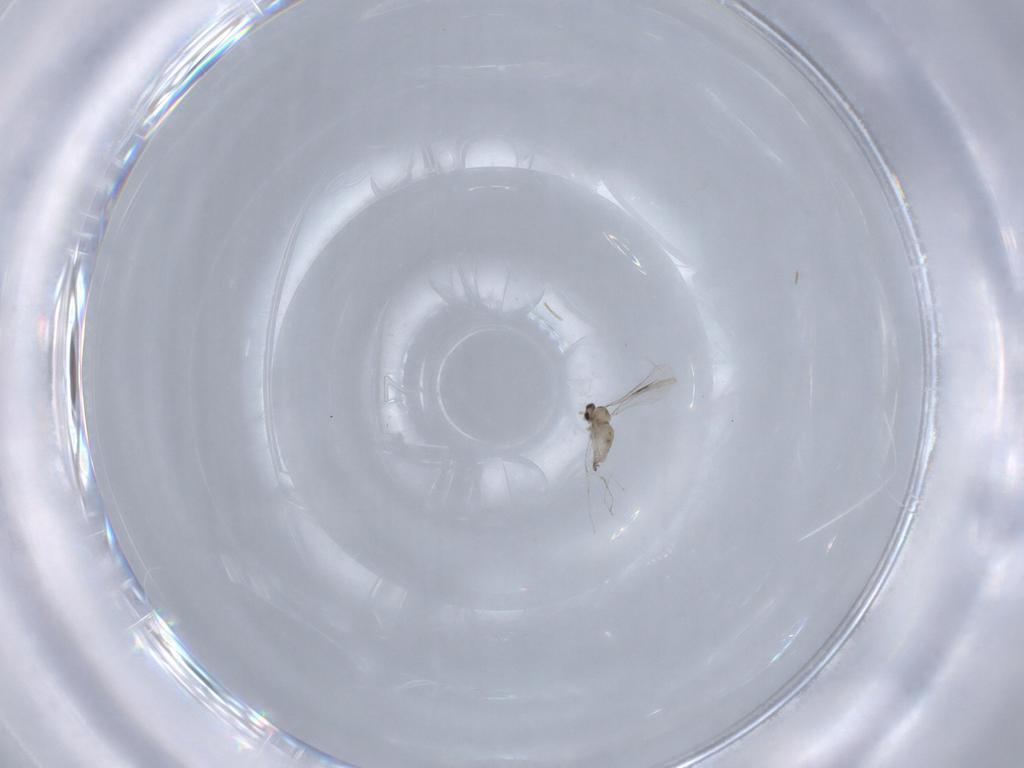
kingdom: Animalia
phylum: Arthropoda
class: Insecta
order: Diptera
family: Cecidomyiidae
